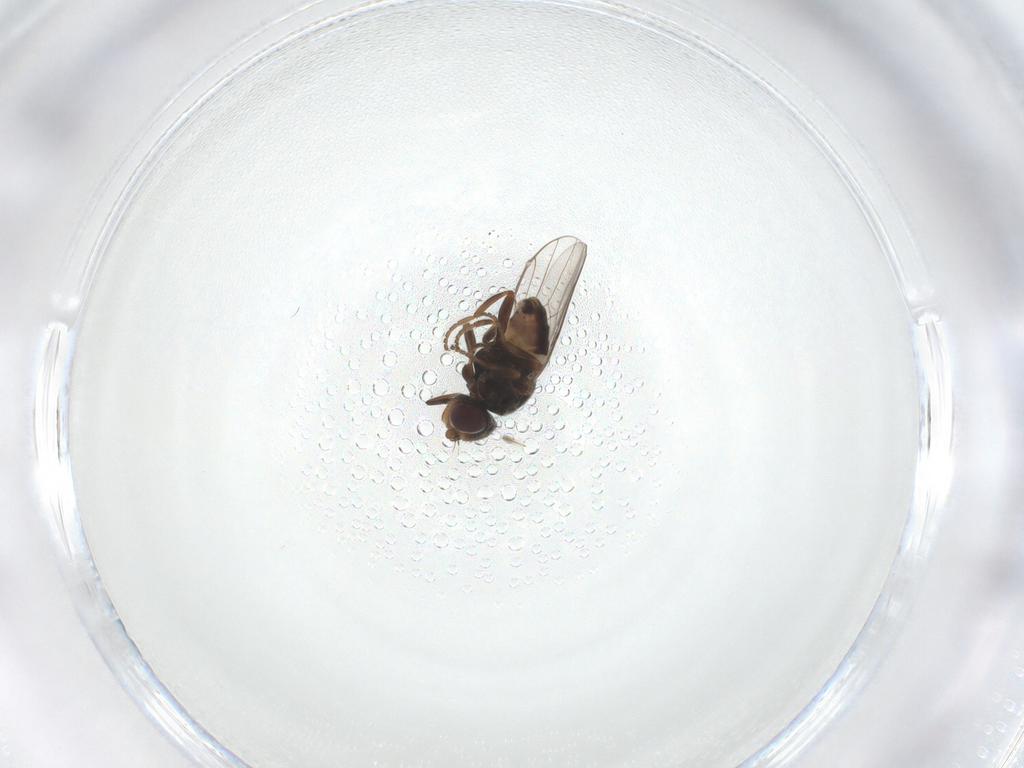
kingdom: Animalia
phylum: Arthropoda
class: Insecta
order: Diptera
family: Chloropidae
